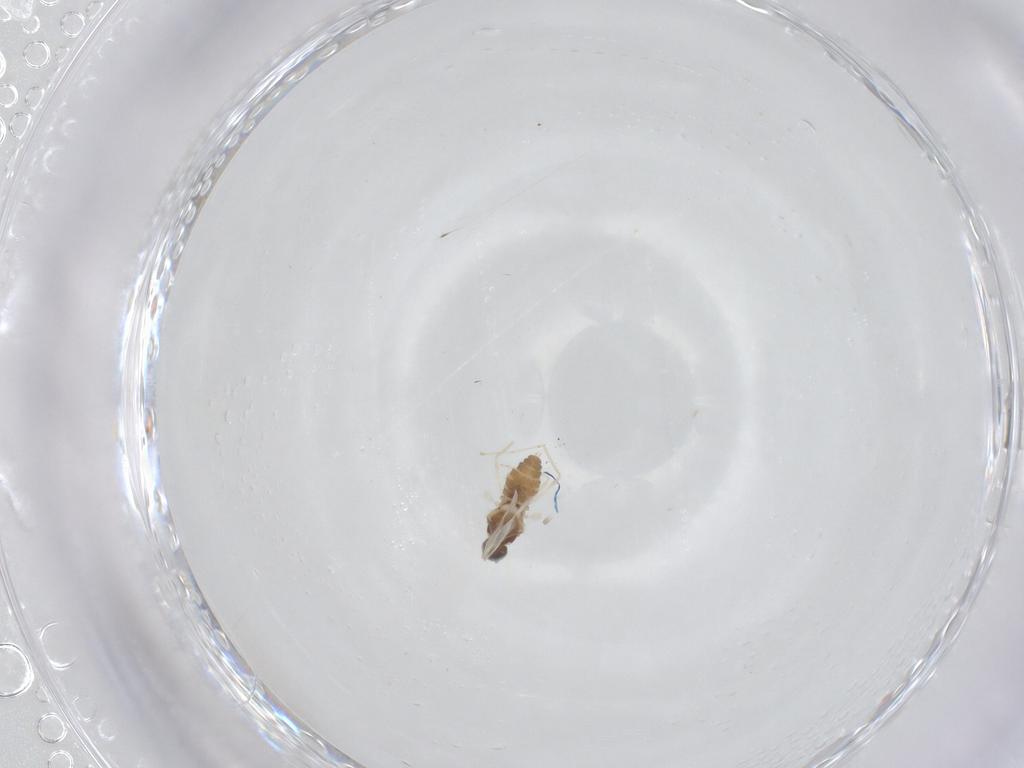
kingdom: Animalia
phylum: Arthropoda
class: Insecta
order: Diptera
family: Cecidomyiidae
